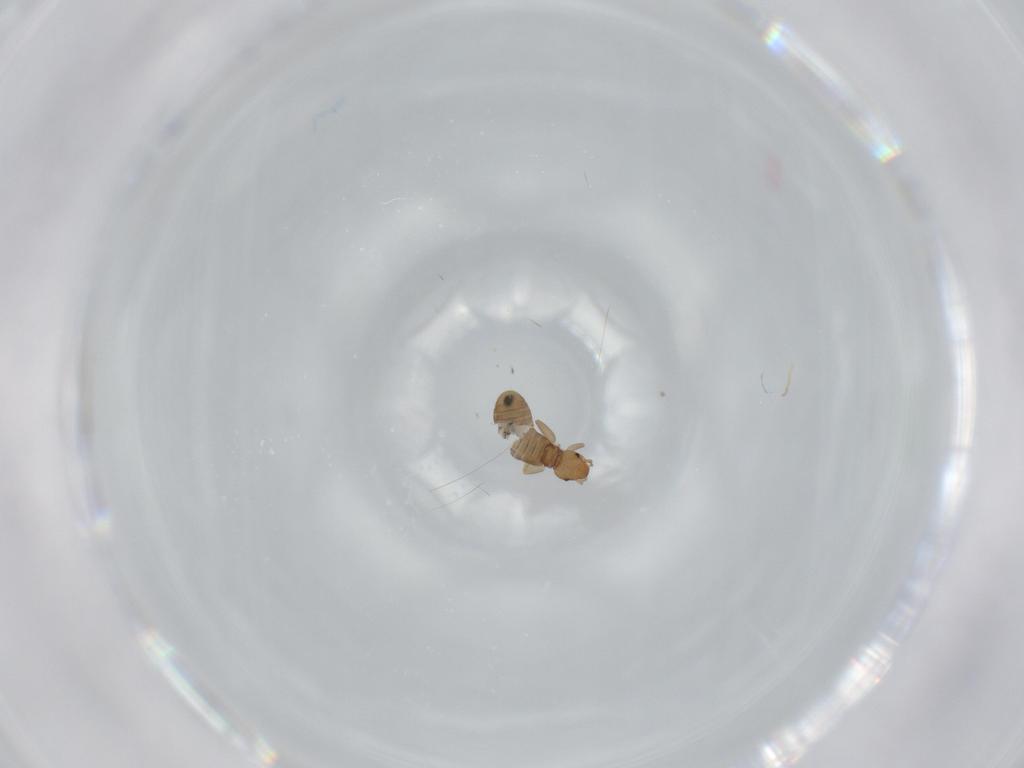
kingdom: Animalia
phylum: Arthropoda
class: Insecta
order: Psocodea
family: Liposcelididae
